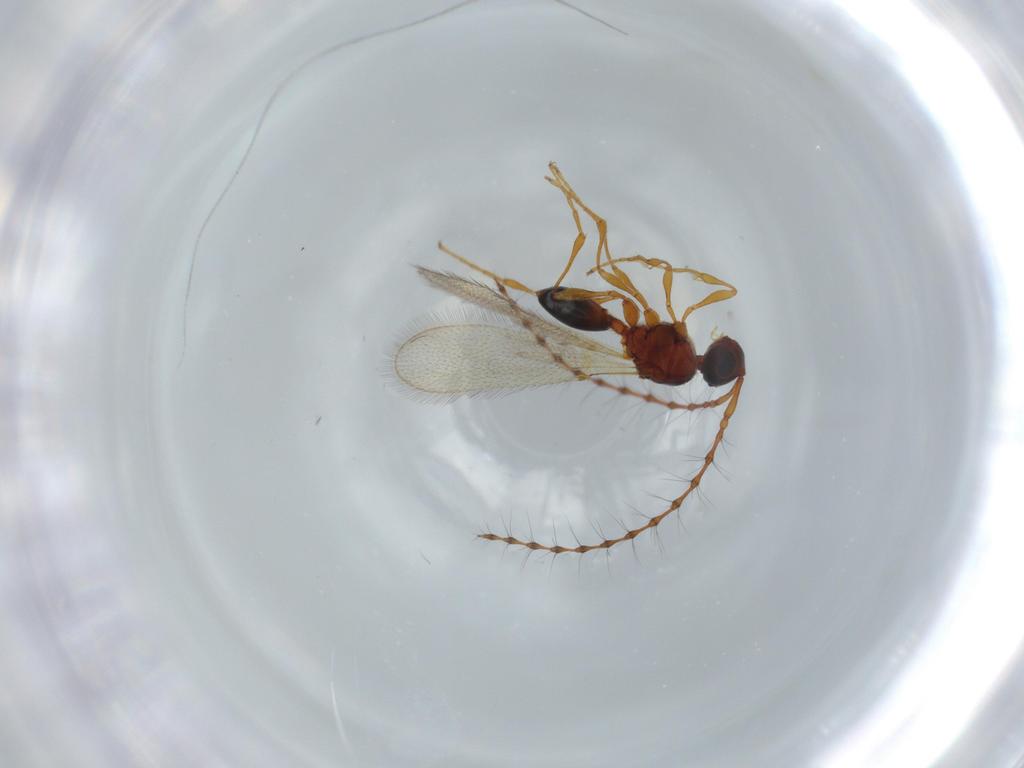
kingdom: Animalia
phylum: Arthropoda
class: Insecta
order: Hymenoptera
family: Diapriidae
